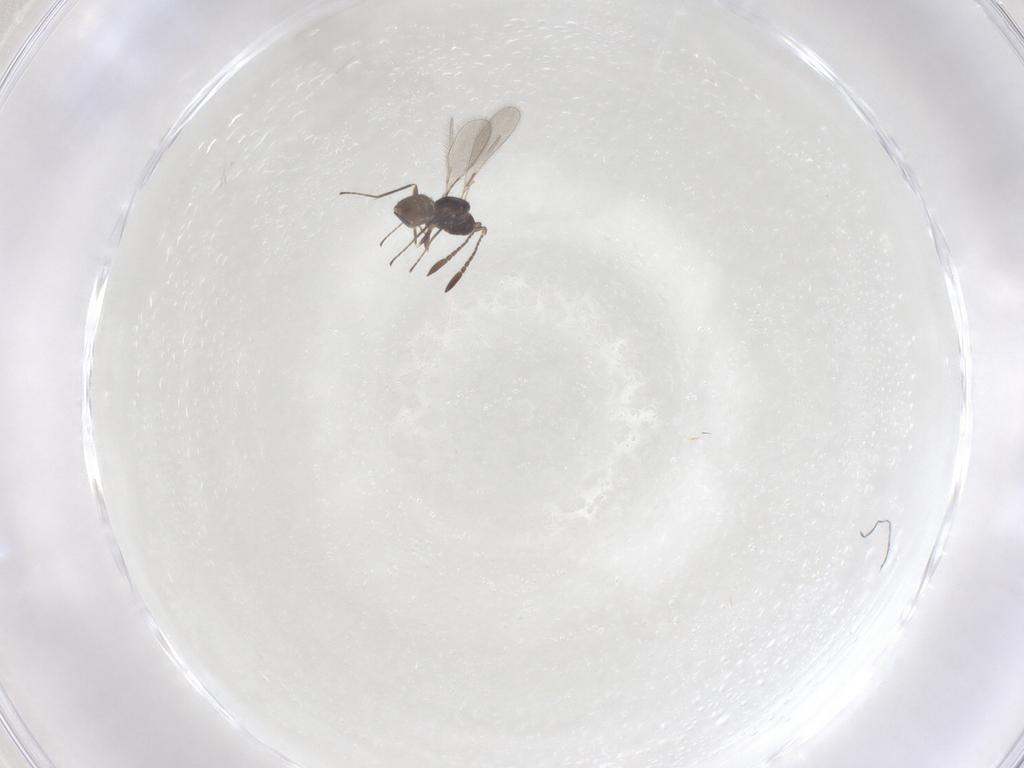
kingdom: Animalia
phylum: Arthropoda
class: Insecta
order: Hymenoptera
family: Mymaridae
